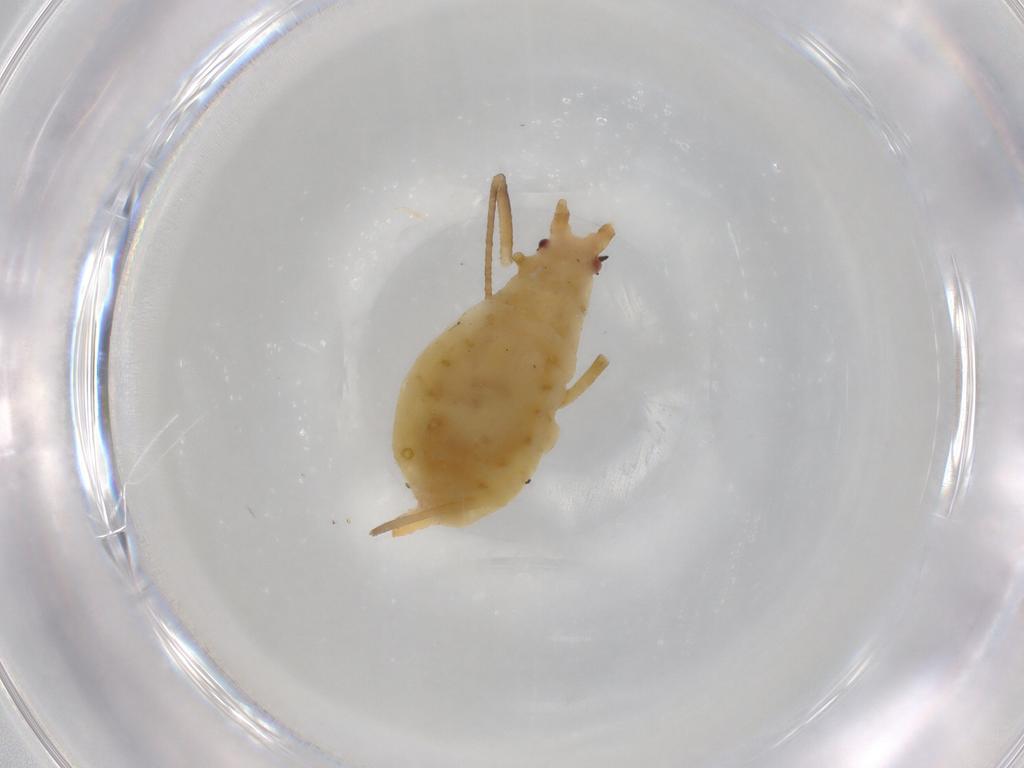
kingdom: Animalia
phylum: Arthropoda
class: Insecta
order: Hemiptera
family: Aphididae
